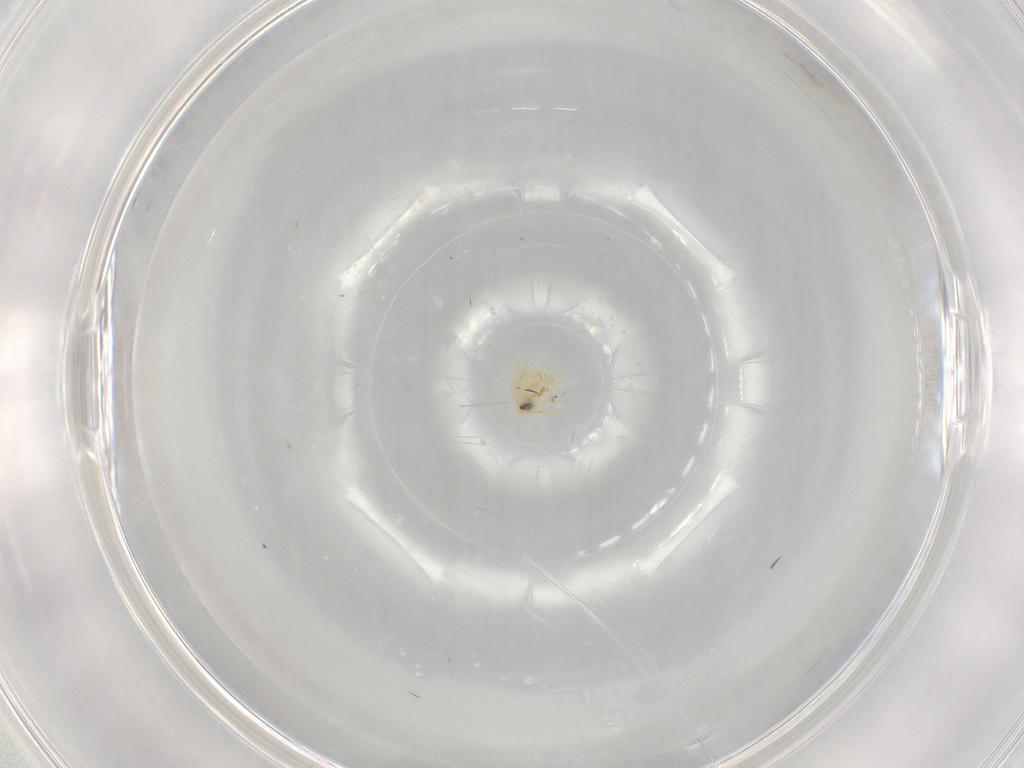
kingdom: Animalia
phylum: Arthropoda
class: Insecta
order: Hemiptera
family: Aleyrodidae
